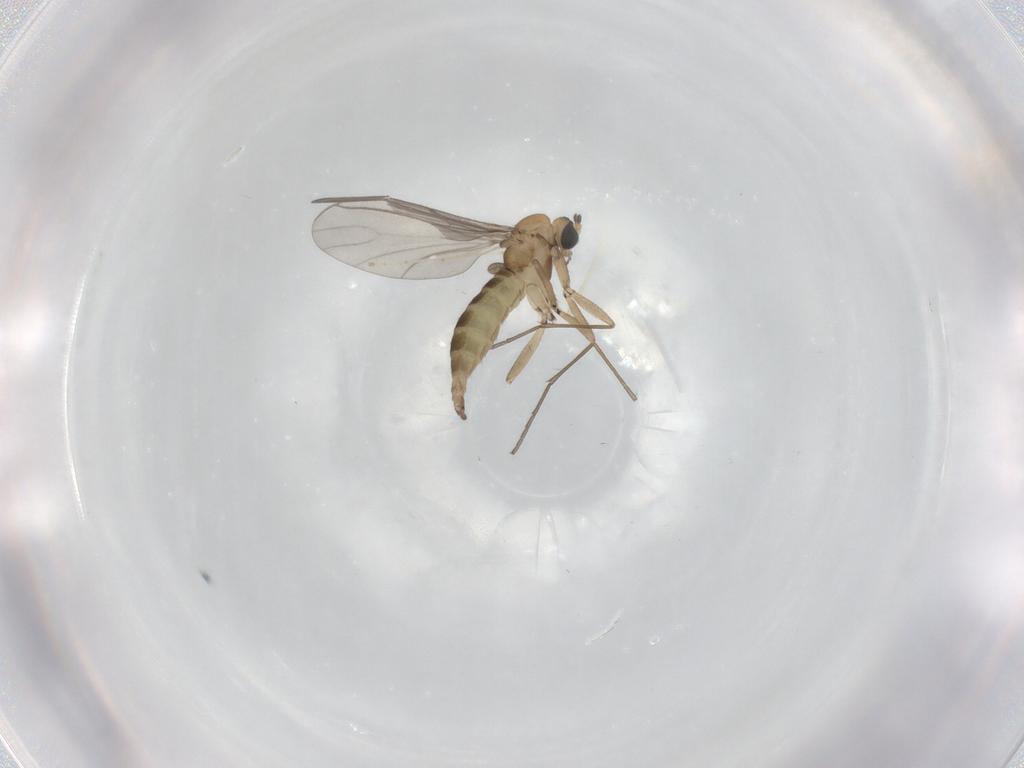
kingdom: Animalia
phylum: Arthropoda
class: Insecta
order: Diptera
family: Sciaridae
